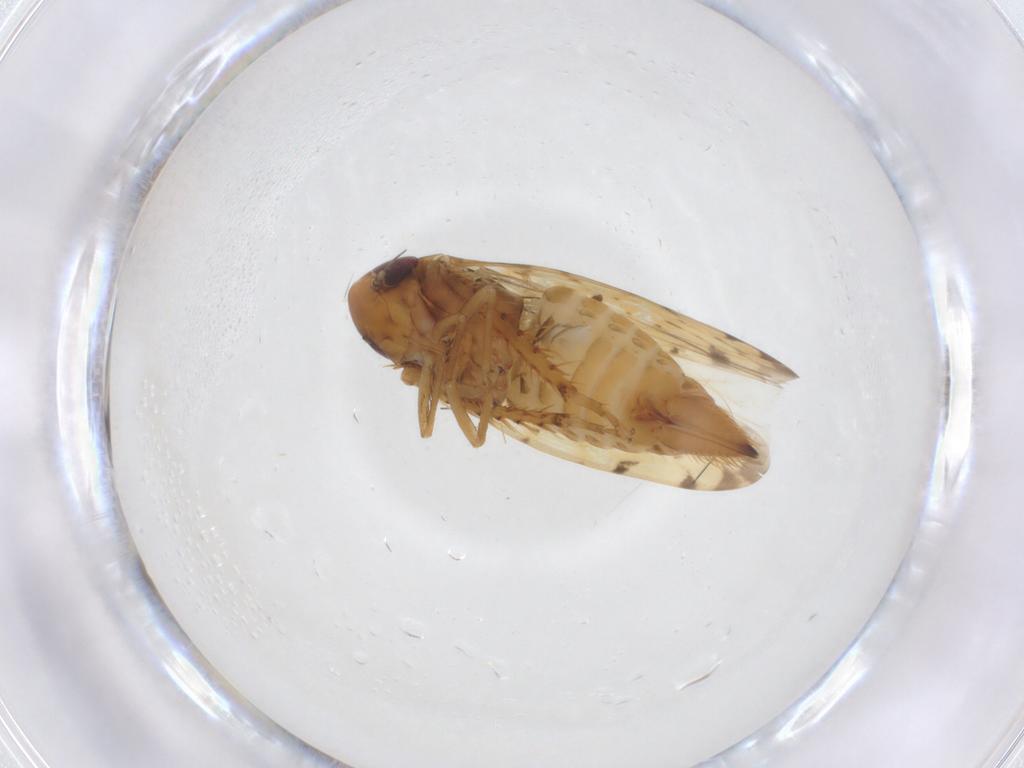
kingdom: Animalia
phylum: Arthropoda
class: Insecta
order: Hemiptera
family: Cicadellidae
